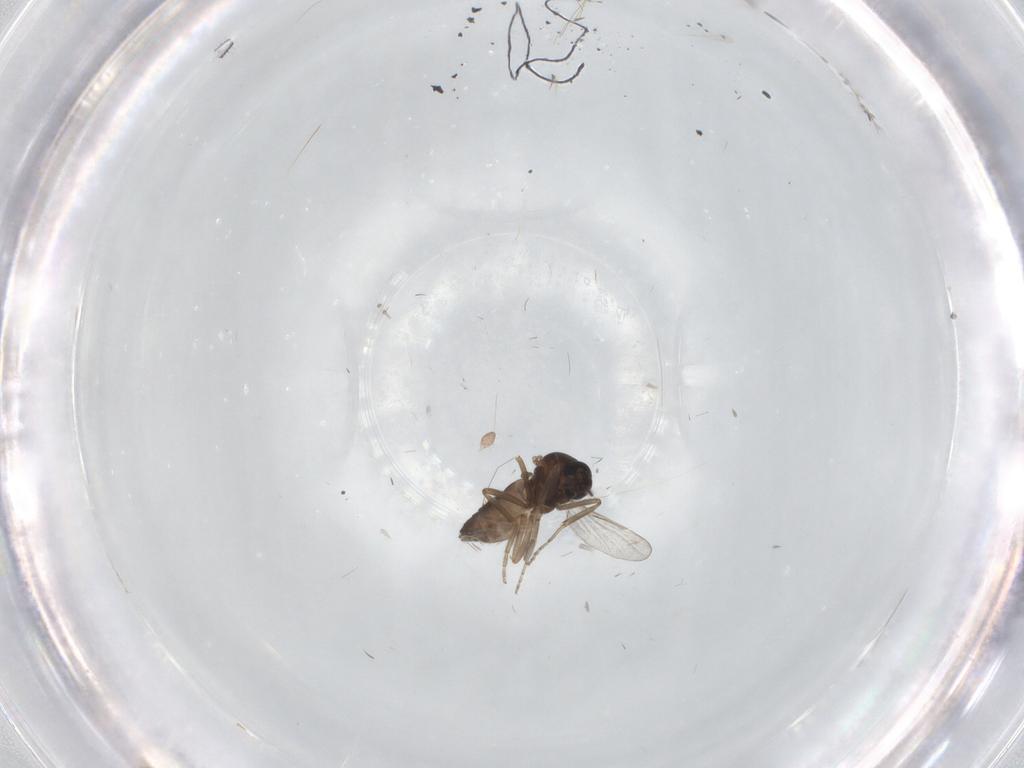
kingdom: Animalia
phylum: Arthropoda
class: Insecta
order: Diptera
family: Ceratopogonidae
